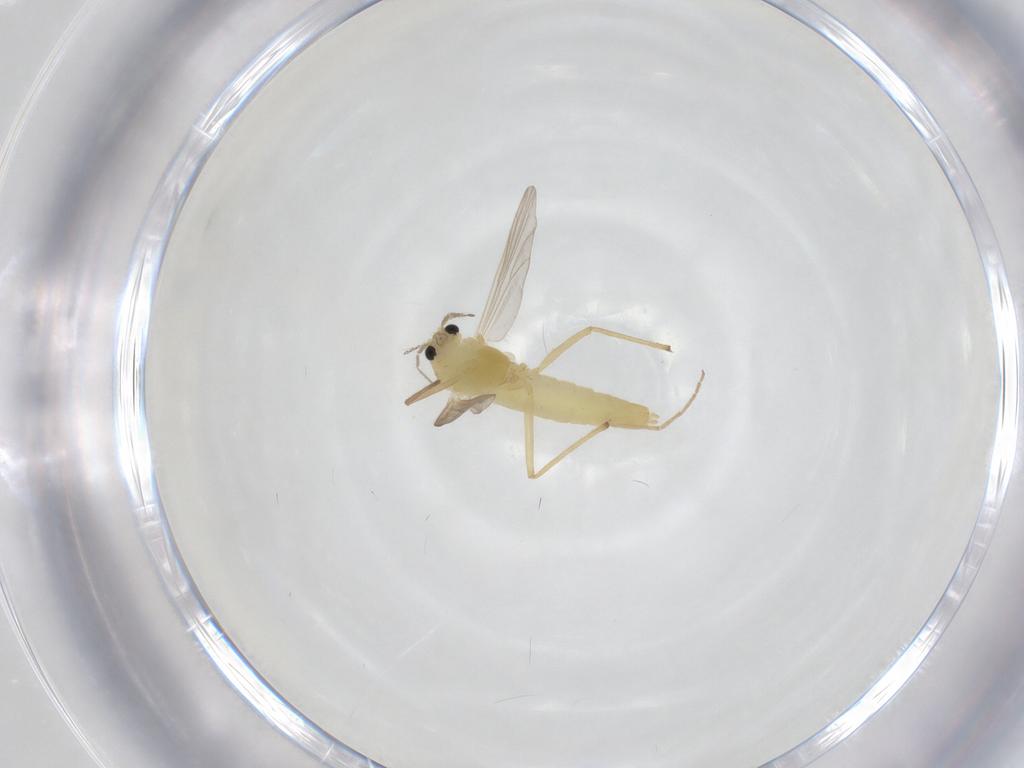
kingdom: Animalia
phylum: Arthropoda
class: Insecta
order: Diptera
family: Chironomidae
